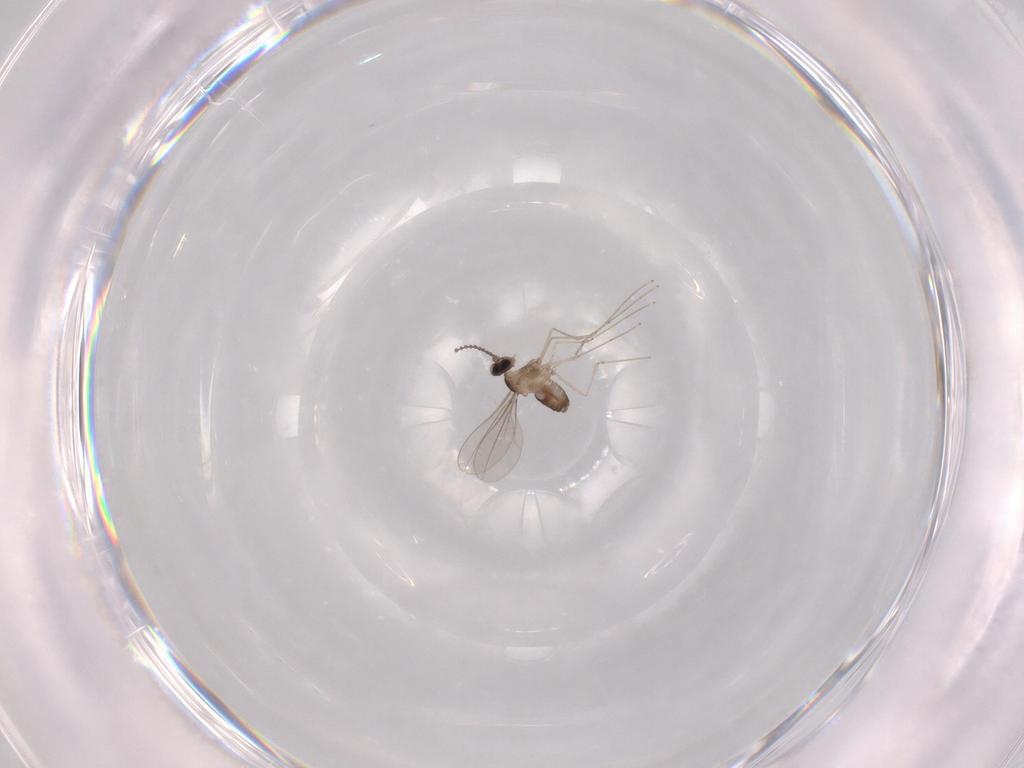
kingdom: Animalia
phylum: Arthropoda
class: Insecta
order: Diptera
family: Cecidomyiidae
